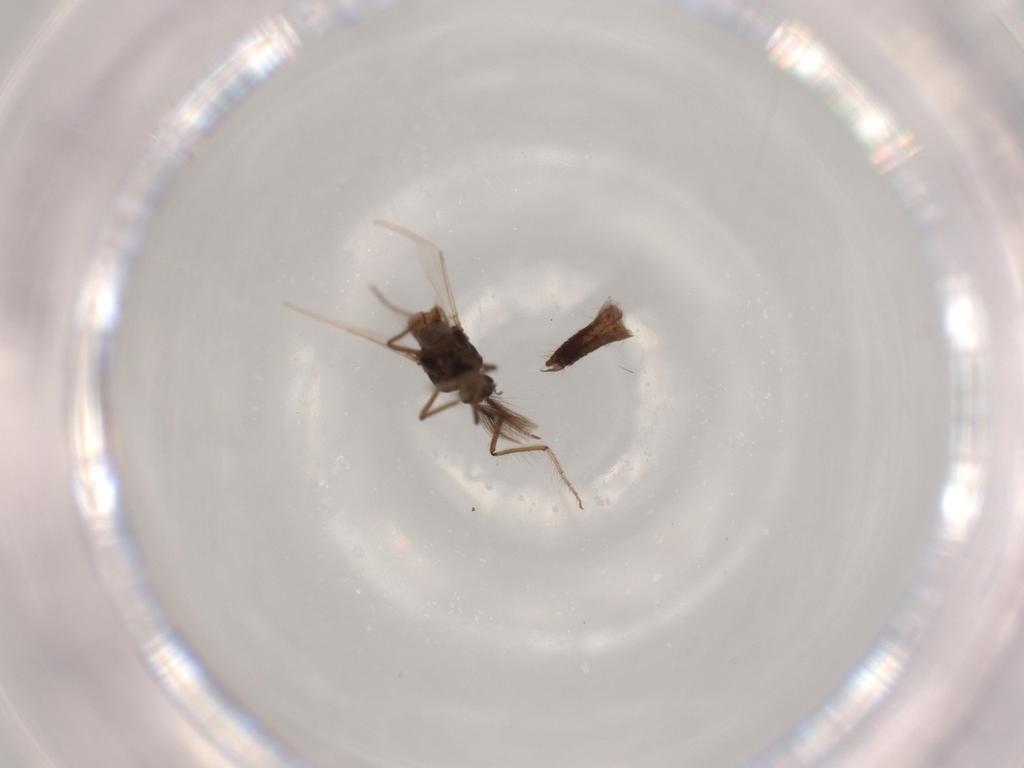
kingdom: Animalia
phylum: Arthropoda
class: Insecta
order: Diptera
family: Chironomidae
